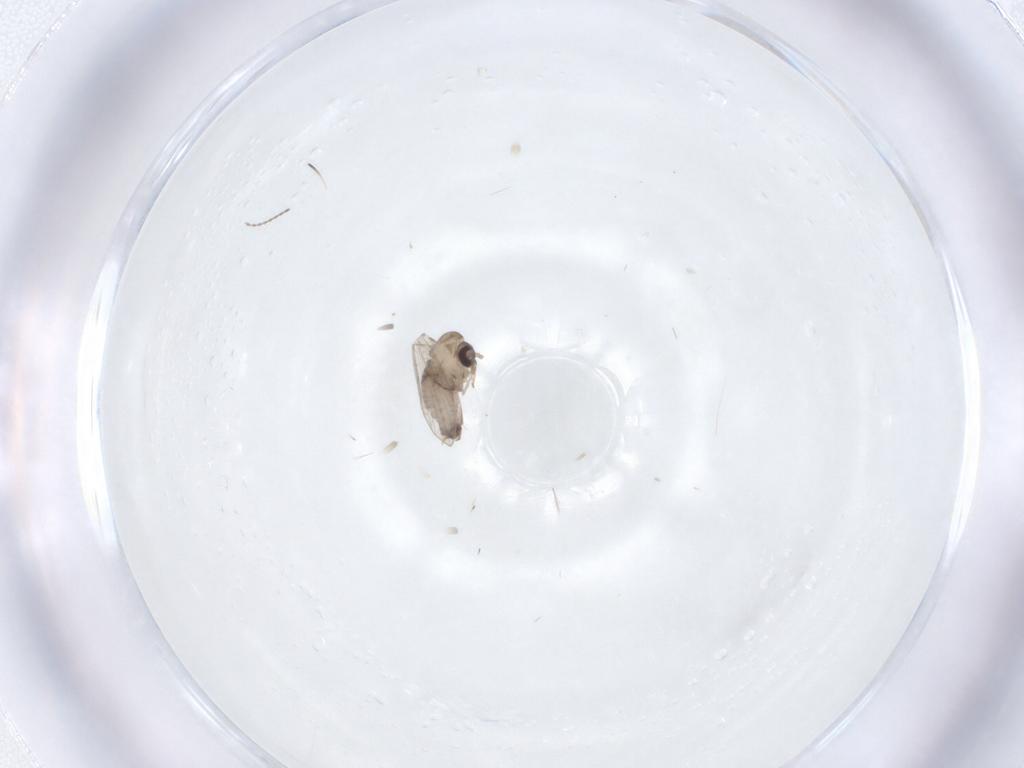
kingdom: Animalia
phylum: Arthropoda
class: Insecta
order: Diptera
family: Psychodidae
